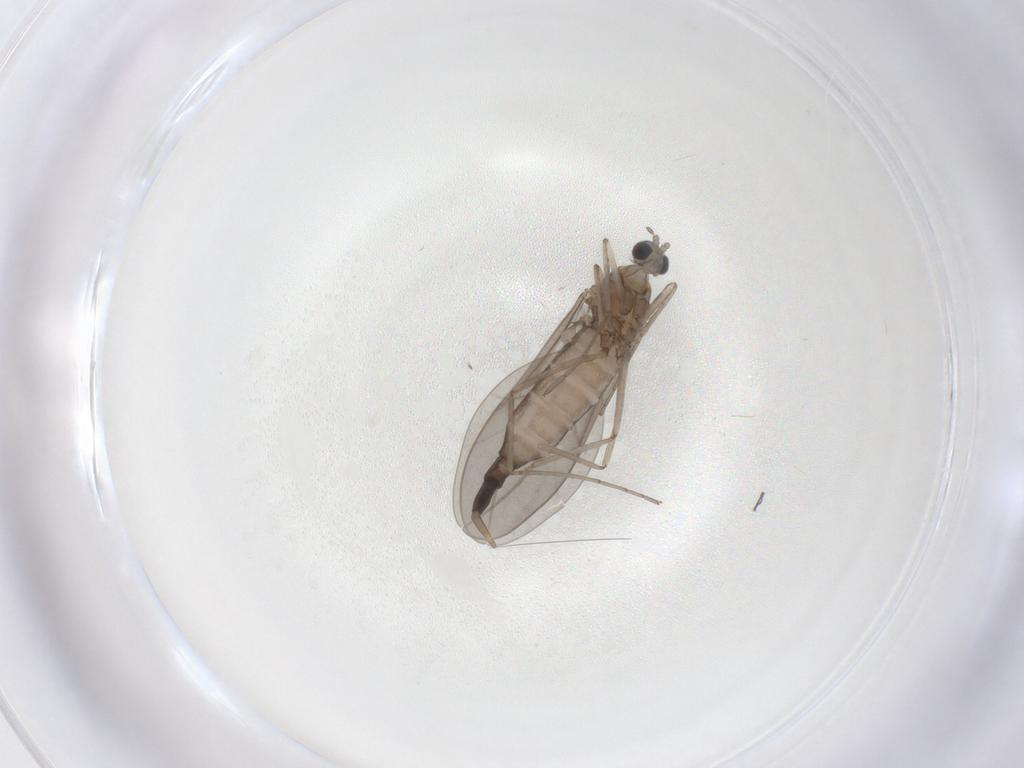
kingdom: Animalia
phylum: Arthropoda
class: Insecta
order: Diptera
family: Cecidomyiidae
